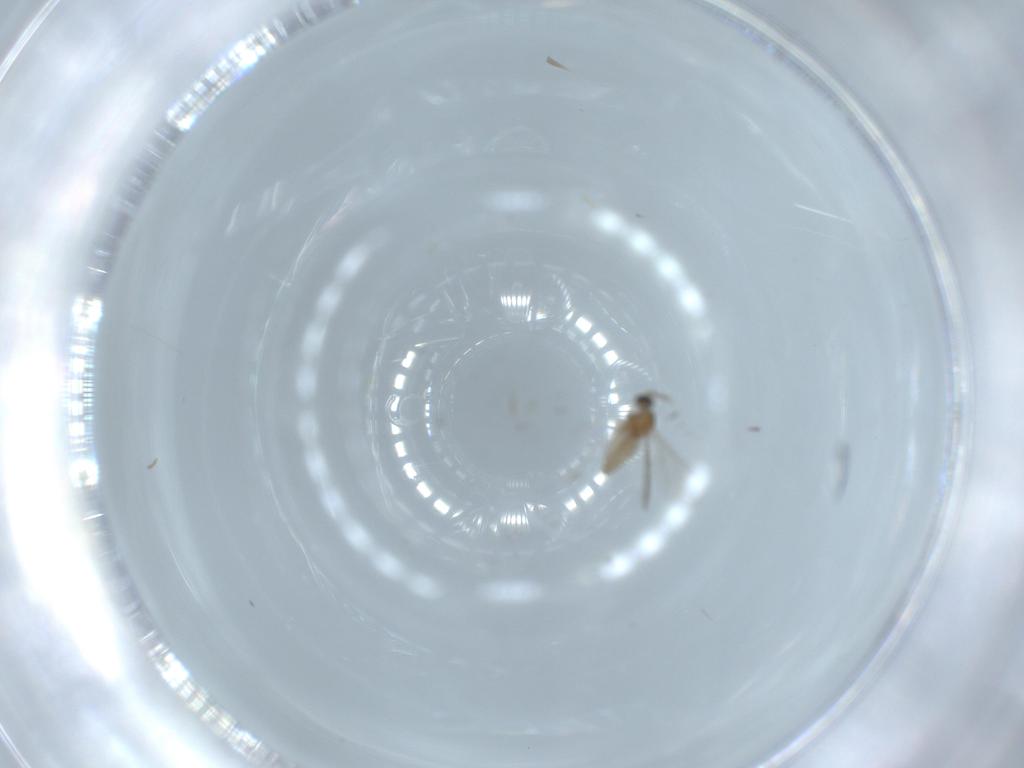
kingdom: Animalia
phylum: Arthropoda
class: Insecta
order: Diptera
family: Cecidomyiidae
